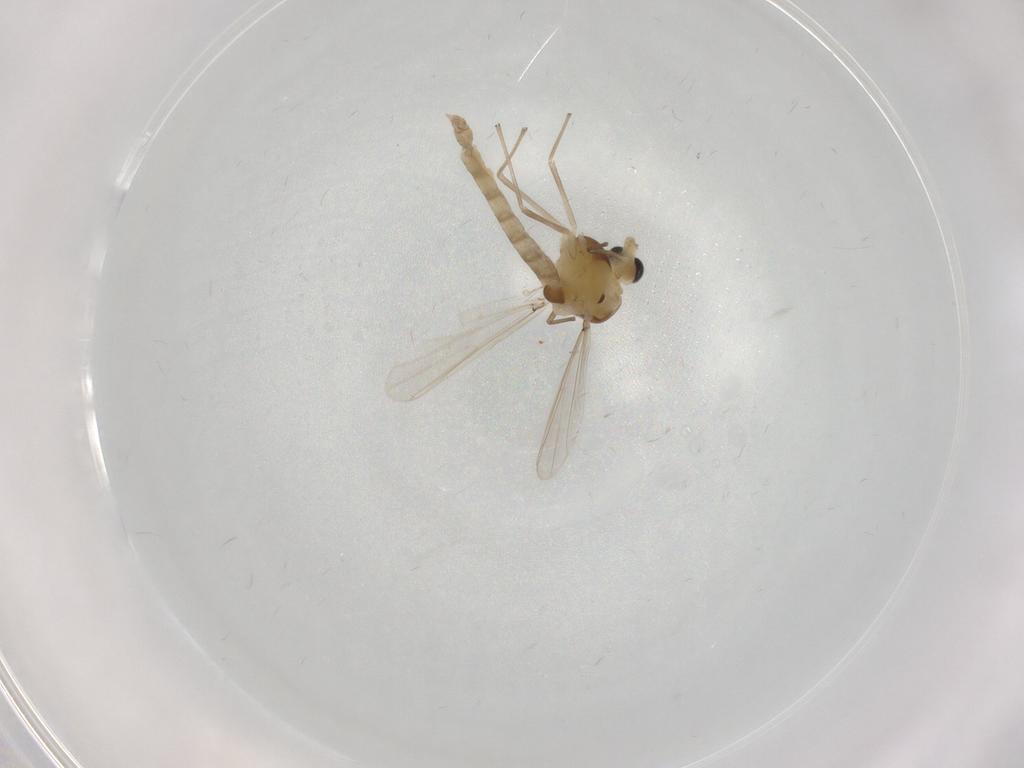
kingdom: Animalia
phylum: Arthropoda
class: Insecta
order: Diptera
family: Chironomidae
